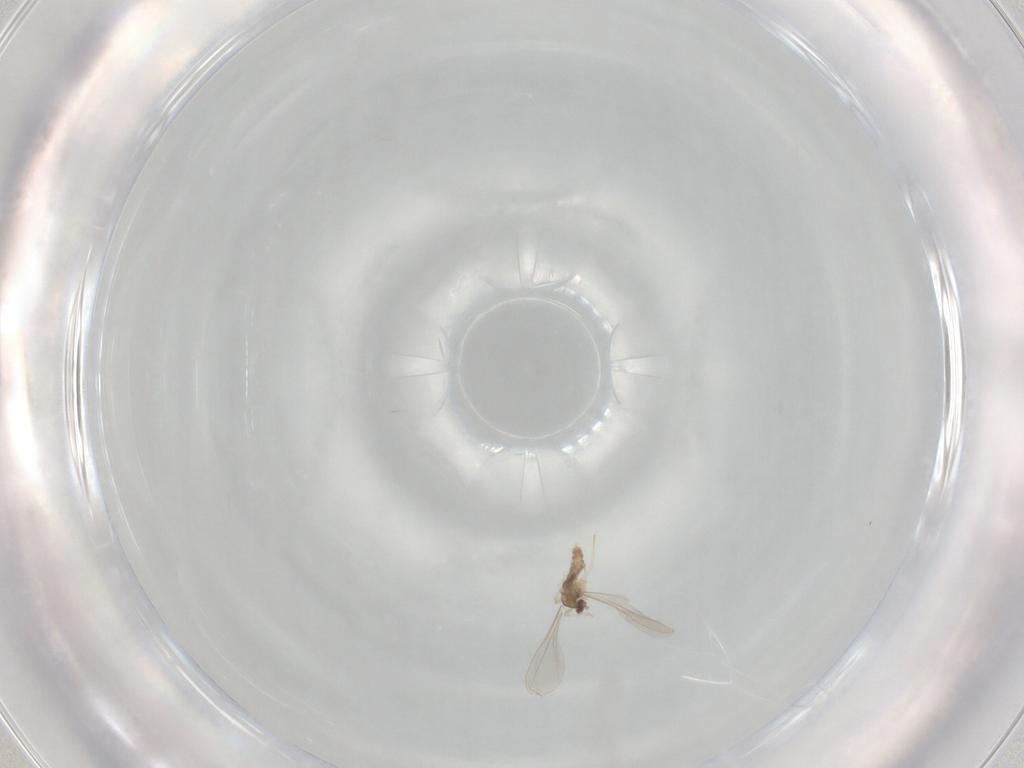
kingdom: Animalia
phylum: Arthropoda
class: Insecta
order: Diptera
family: Cecidomyiidae
